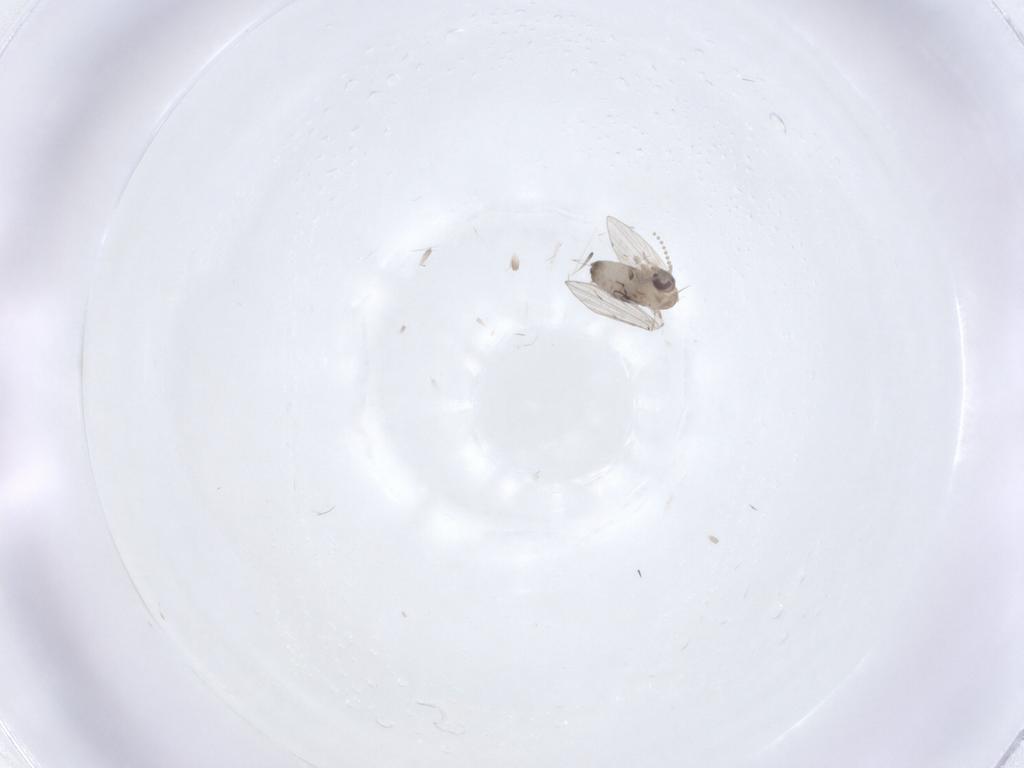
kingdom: Animalia
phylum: Arthropoda
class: Insecta
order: Diptera
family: Psychodidae
